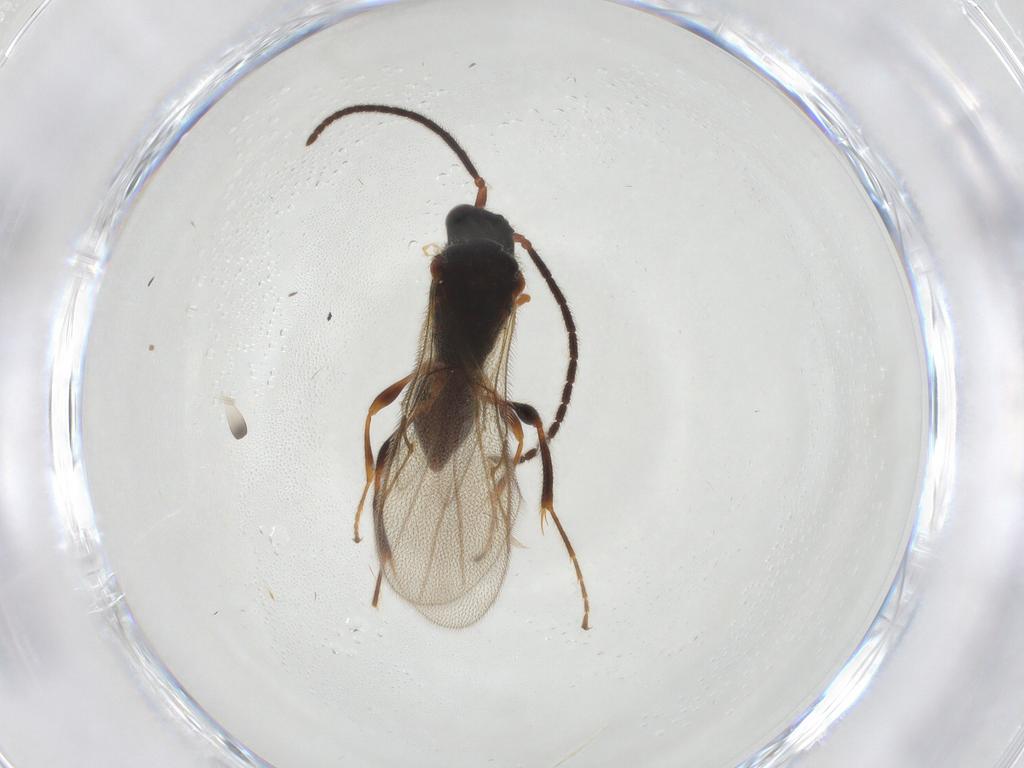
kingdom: Animalia
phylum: Arthropoda
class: Insecta
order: Hymenoptera
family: Diapriidae
